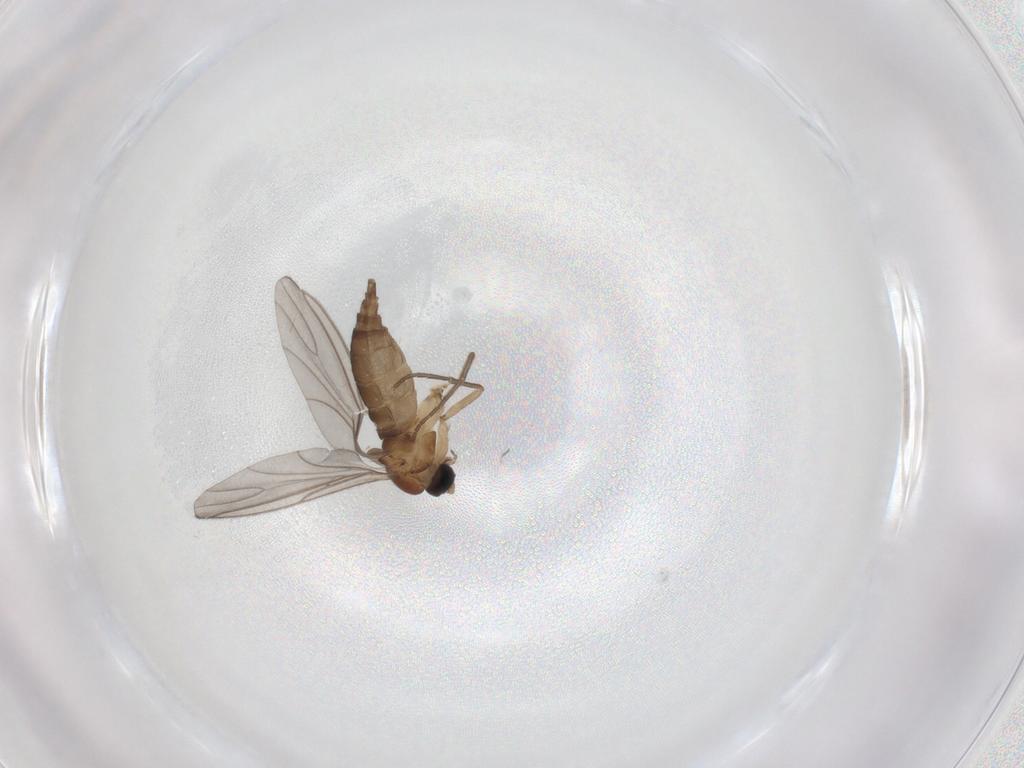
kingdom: Animalia
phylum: Arthropoda
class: Insecta
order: Diptera
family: Sciaridae
